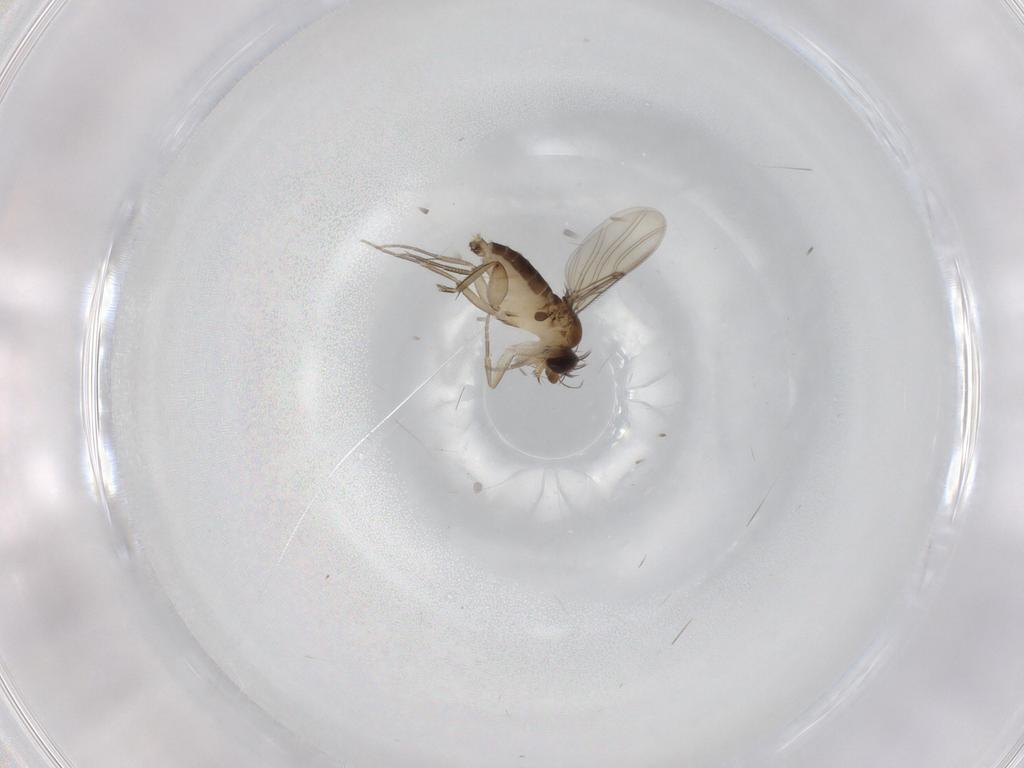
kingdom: Animalia
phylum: Arthropoda
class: Insecta
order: Diptera
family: Phoridae
